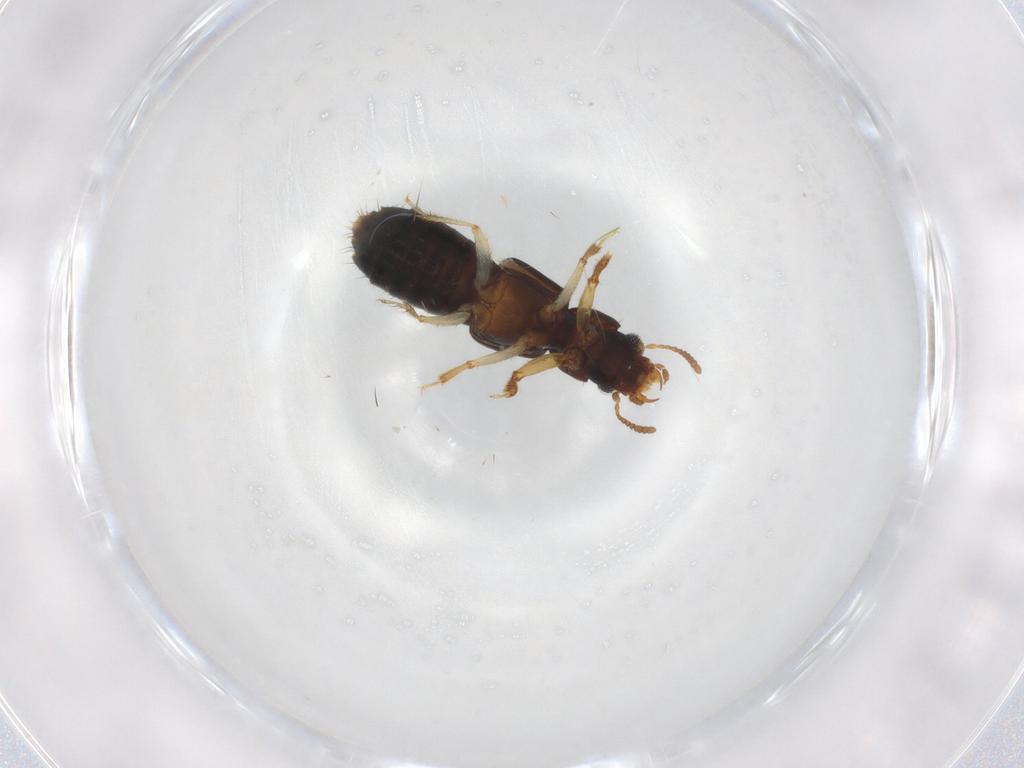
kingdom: Animalia
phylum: Arthropoda
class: Insecta
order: Coleoptera
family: Staphylinidae
